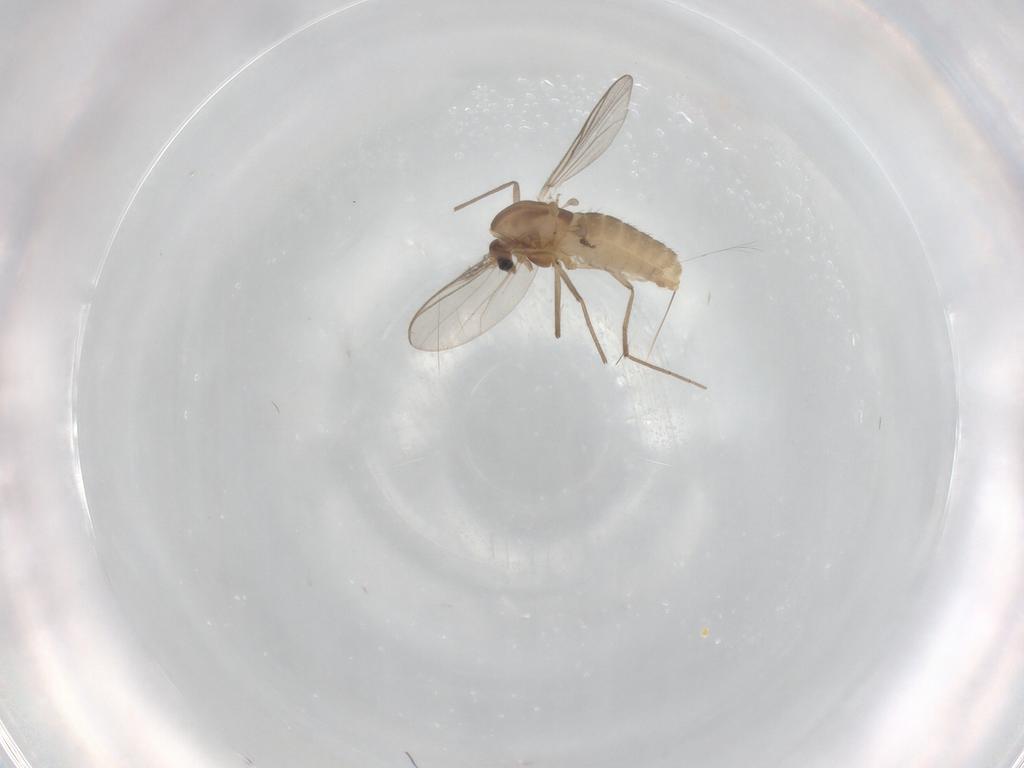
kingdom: Animalia
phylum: Arthropoda
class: Insecta
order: Diptera
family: Chironomidae
